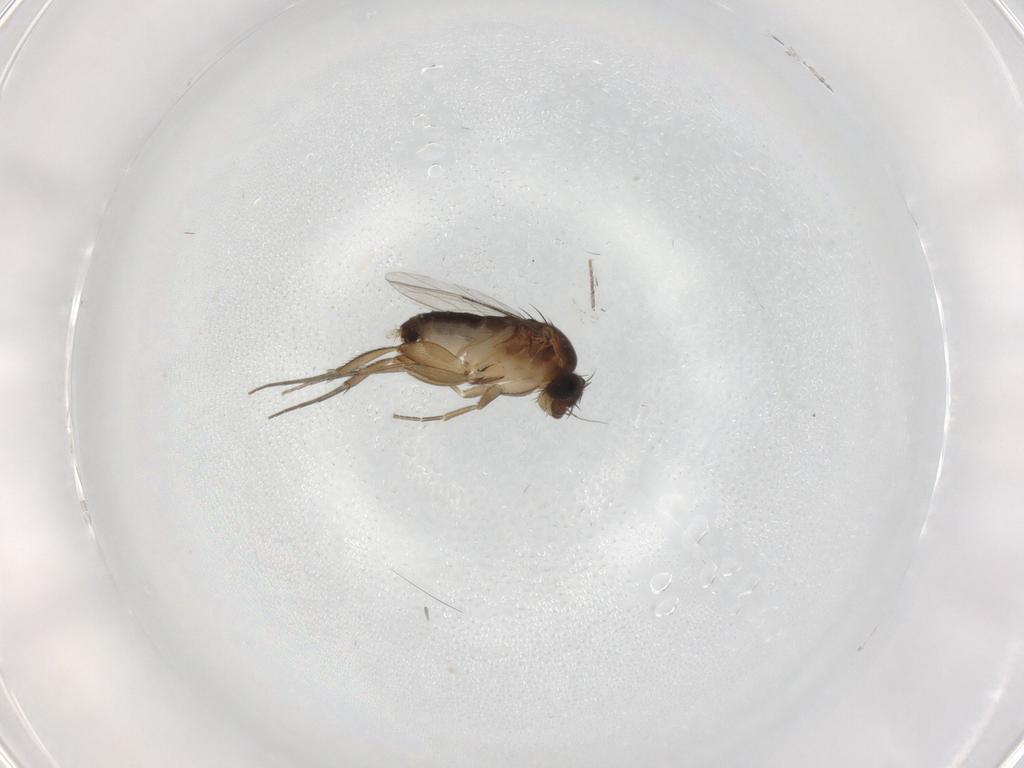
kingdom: Animalia
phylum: Arthropoda
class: Insecta
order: Diptera
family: Phoridae
